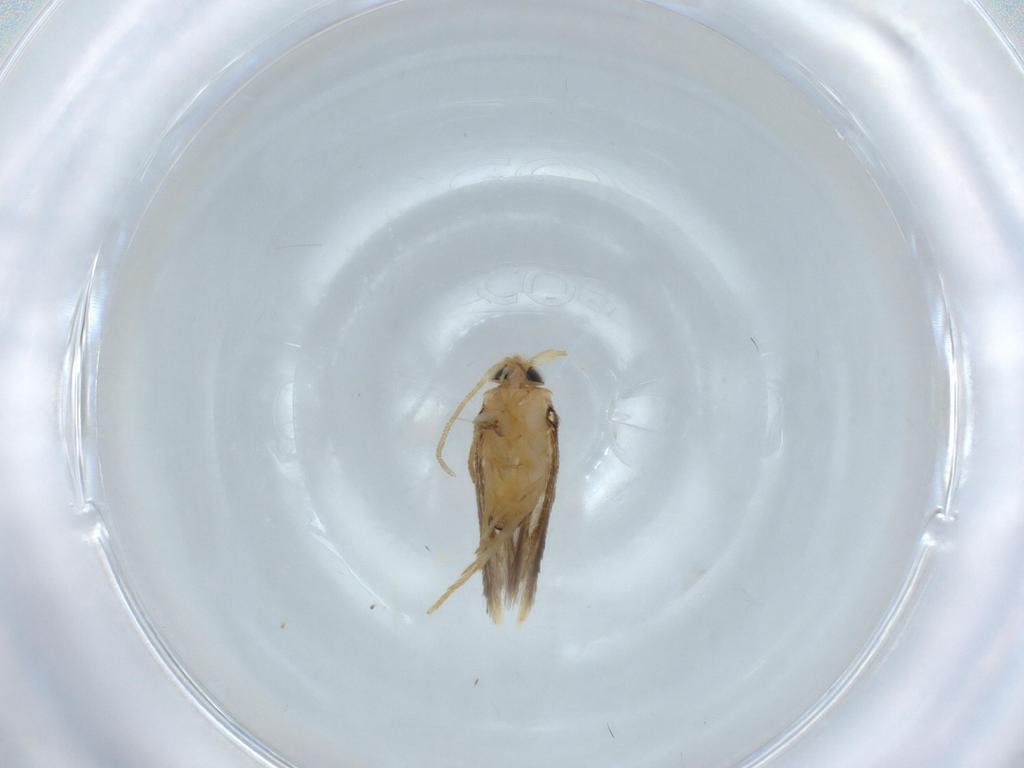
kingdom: Animalia
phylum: Arthropoda
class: Insecta
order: Lepidoptera
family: Nepticulidae
